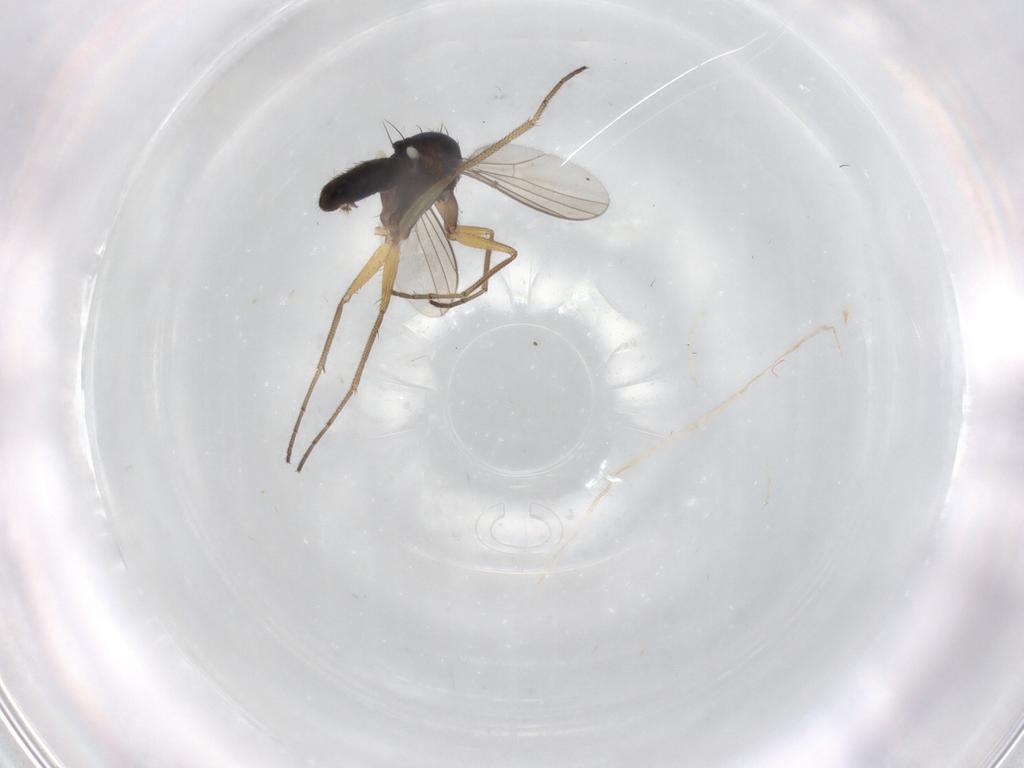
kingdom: Animalia
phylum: Arthropoda
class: Insecta
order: Diptera
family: Dolichopodidae
